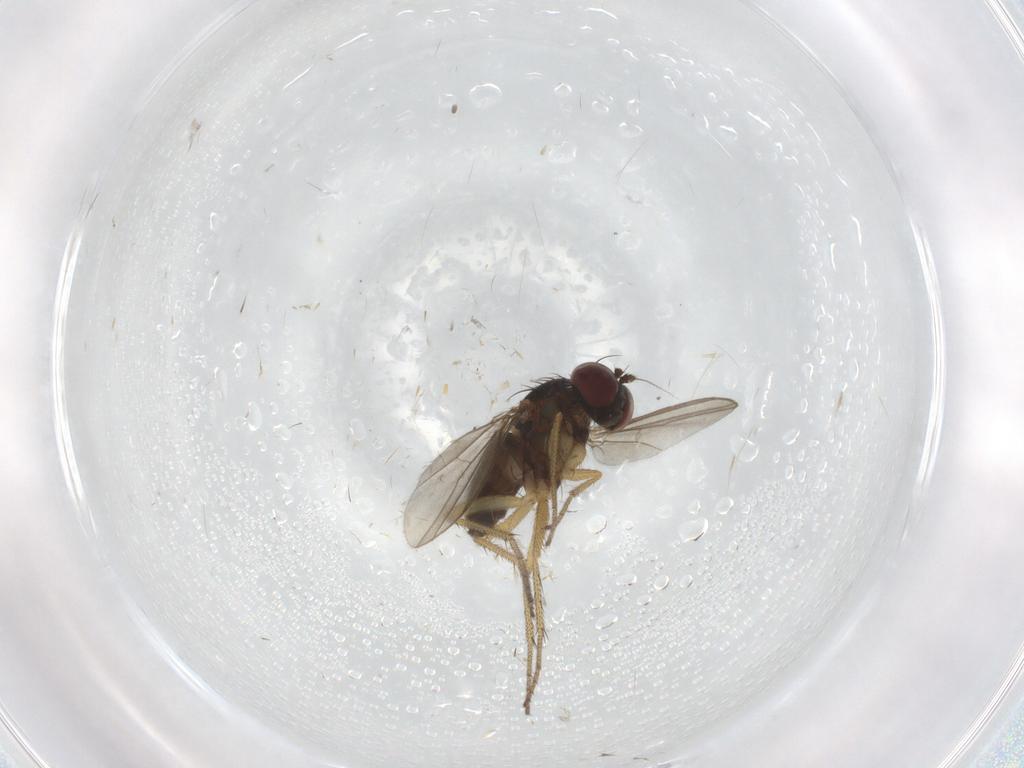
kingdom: Animalia
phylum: Arthropoda
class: Insecta
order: Diptera
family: Dolichopodidae
